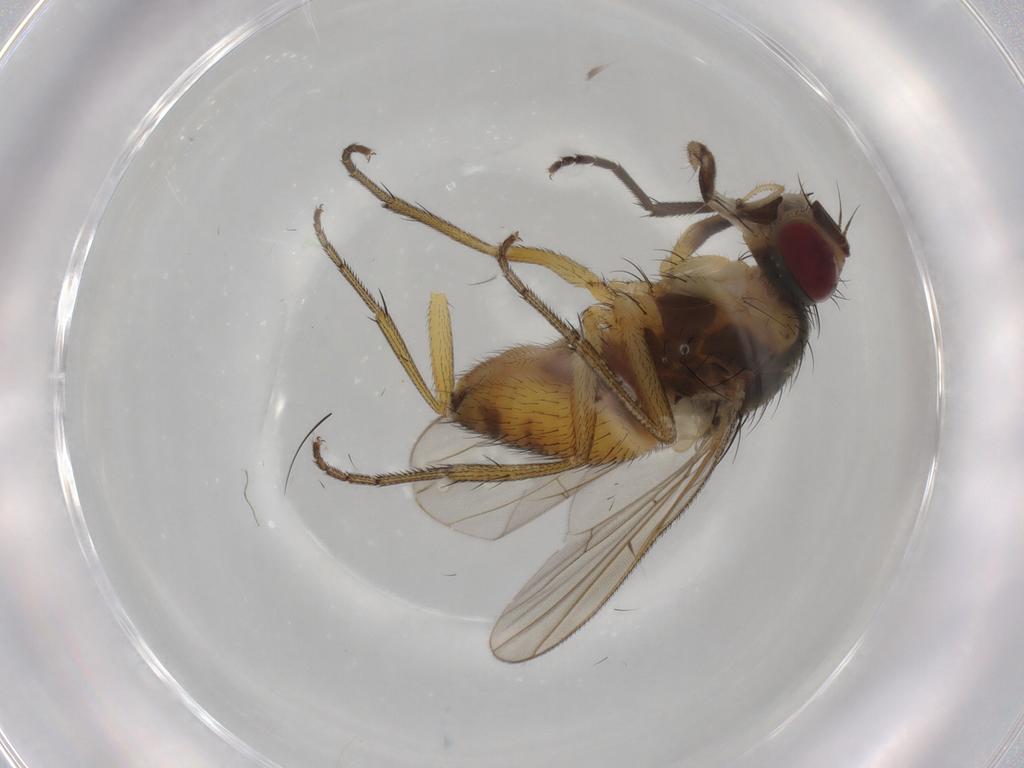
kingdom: Animalia
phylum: Arthropoda
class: Insecta
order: Diptera
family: Muscidae
